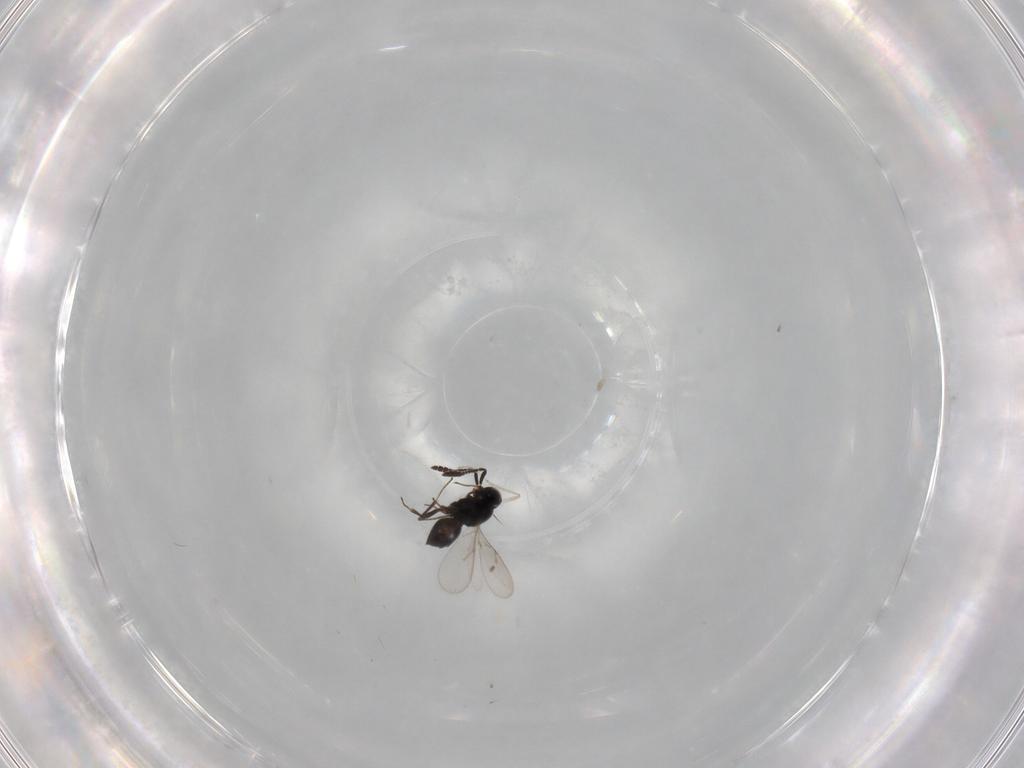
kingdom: Animalia
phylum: Arthropoda
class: Insecta
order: Hymenoptera
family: Scelionidae
